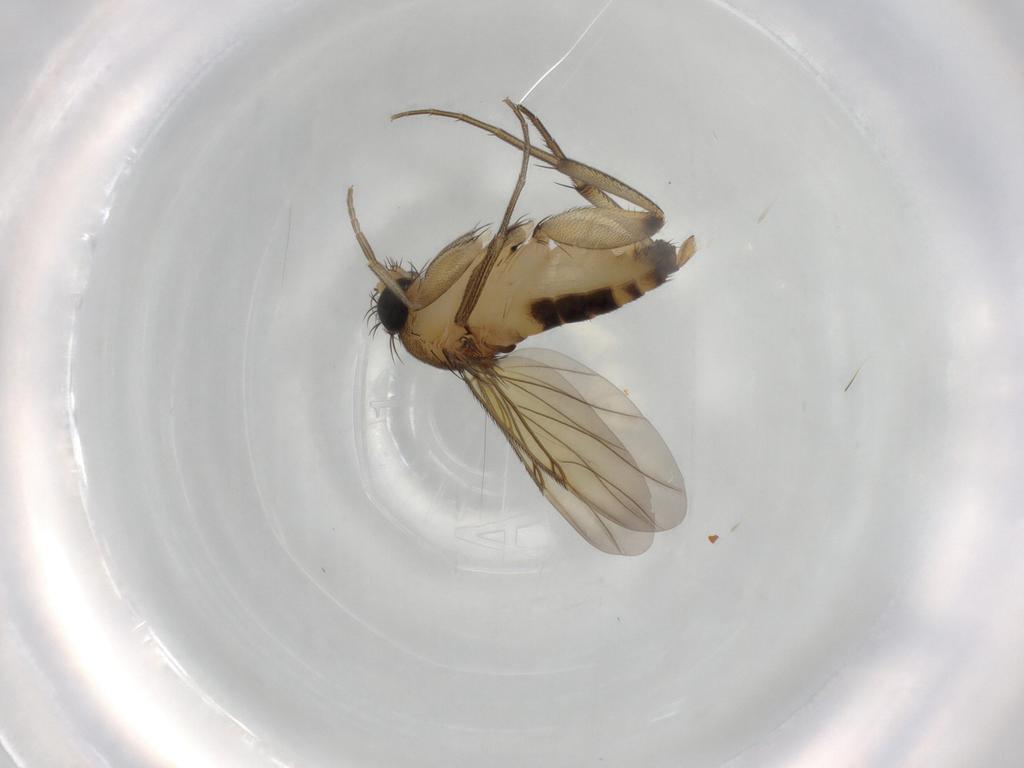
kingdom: Animalia
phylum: Arthropoda
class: Insecta
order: Diptera
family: Phoridae
